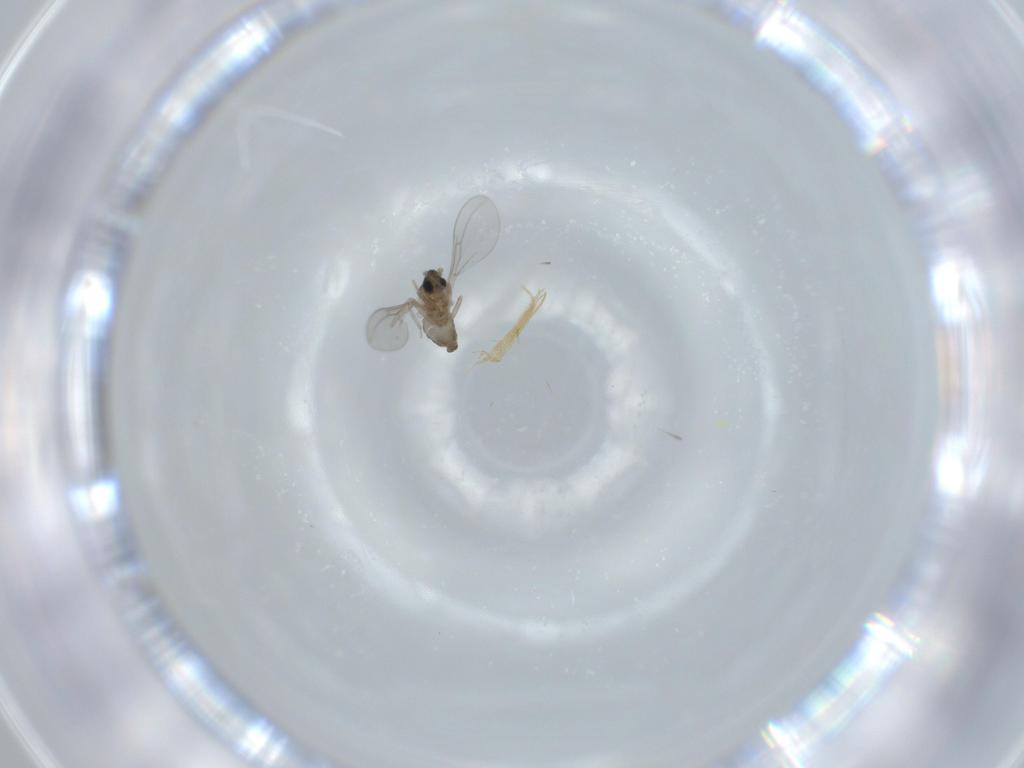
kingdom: Animalia
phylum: Arthropoda
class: Insecta
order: Diptera
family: Cecidomyiidae
